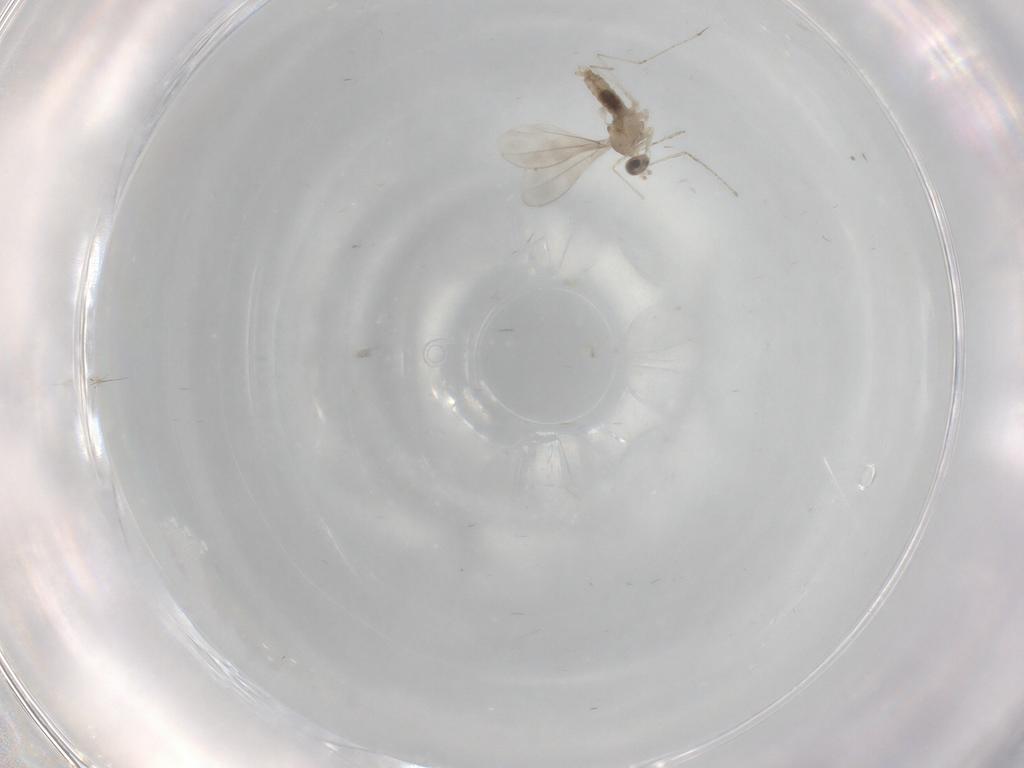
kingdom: Animalia
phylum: Arthropoda
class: Insecta
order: Diptera
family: Cecidomyiidae
